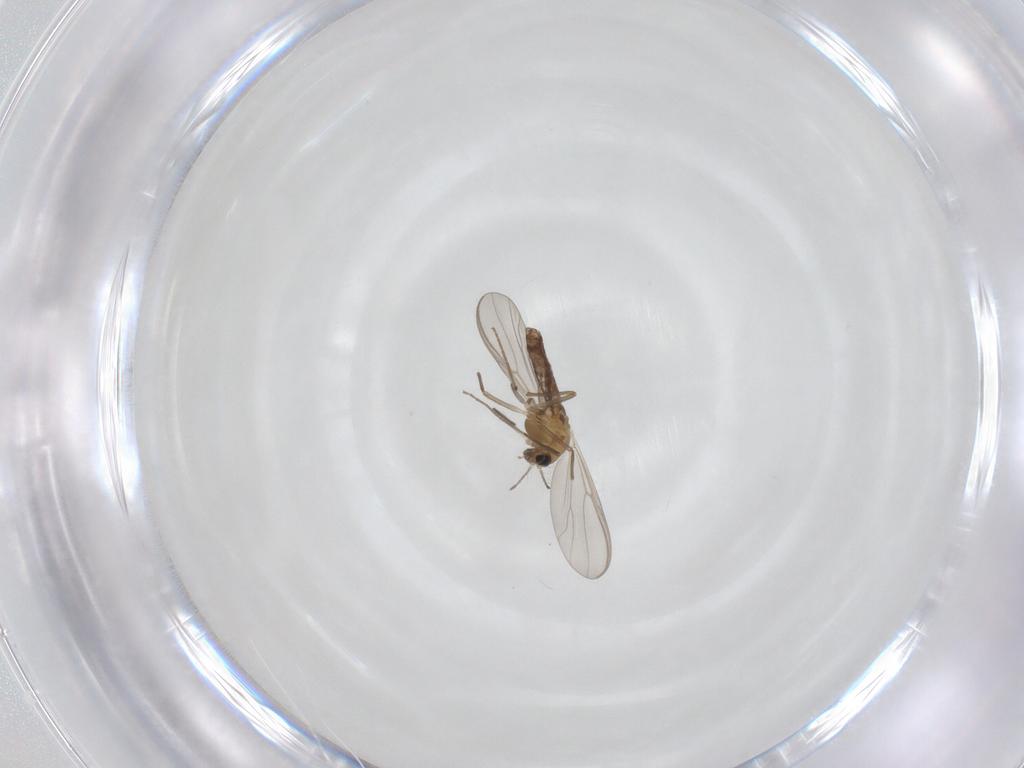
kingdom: Animalia
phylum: Arthropoda
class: Insecta
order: Diptera
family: Chironomidae
